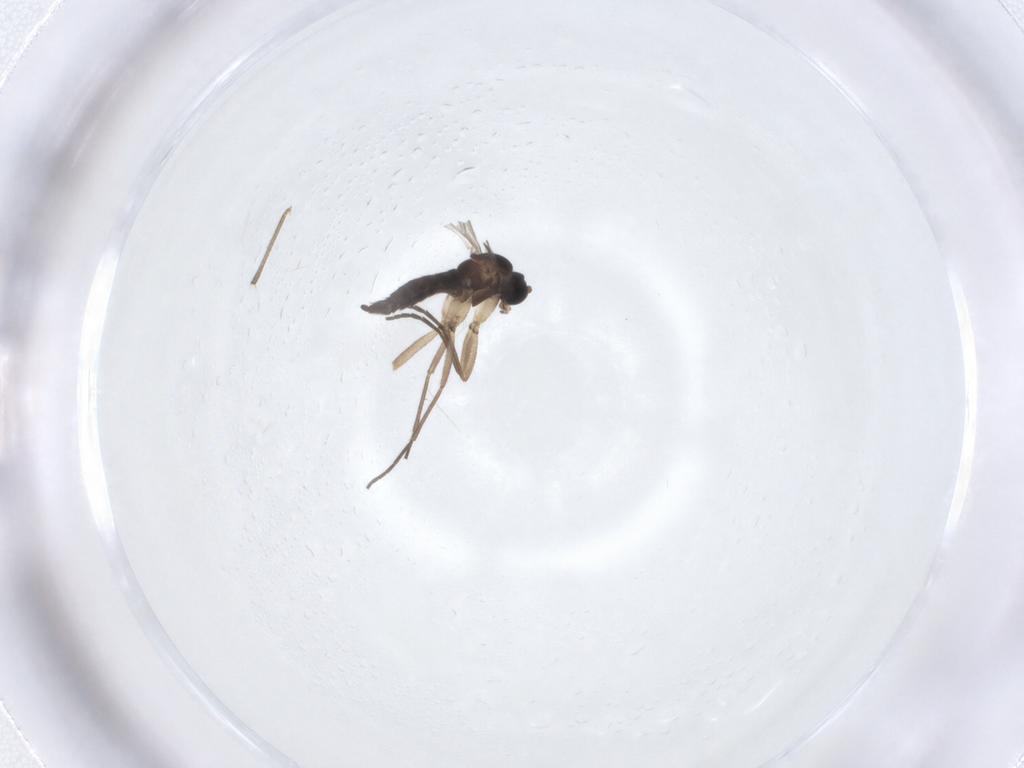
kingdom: Animalia
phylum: Arthropoda
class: Insecta
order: Diptera
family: Sciaridae
